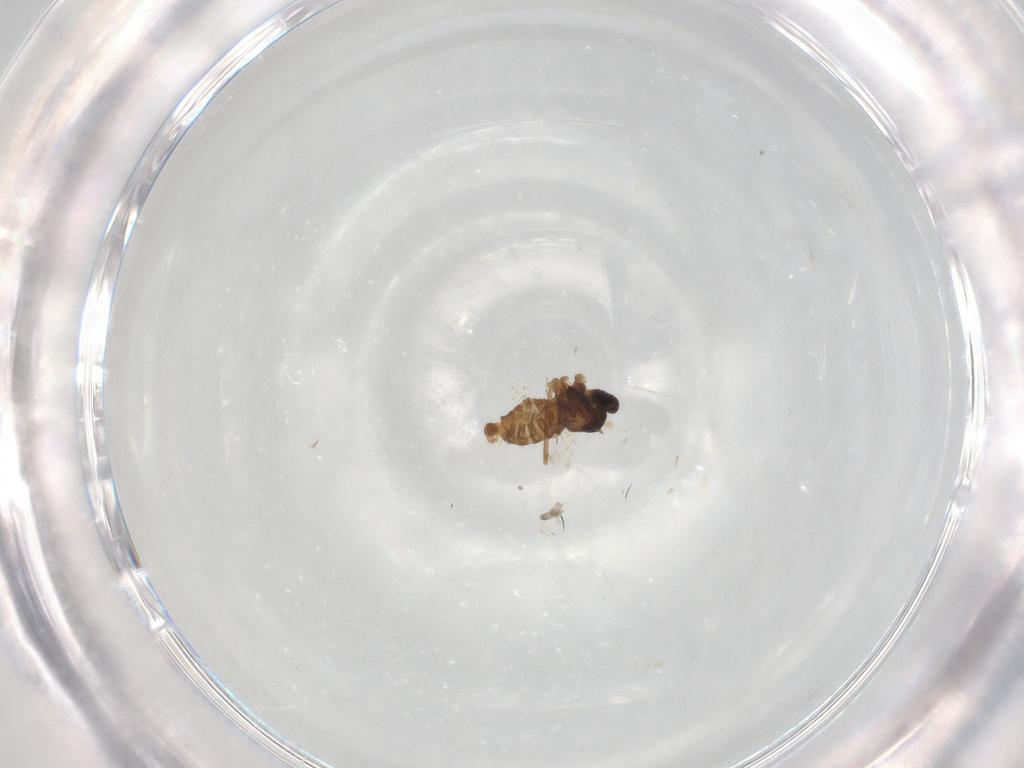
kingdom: Animalia
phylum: Arthropoda
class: Insecta
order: Diptera
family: Cecidomyiidae
